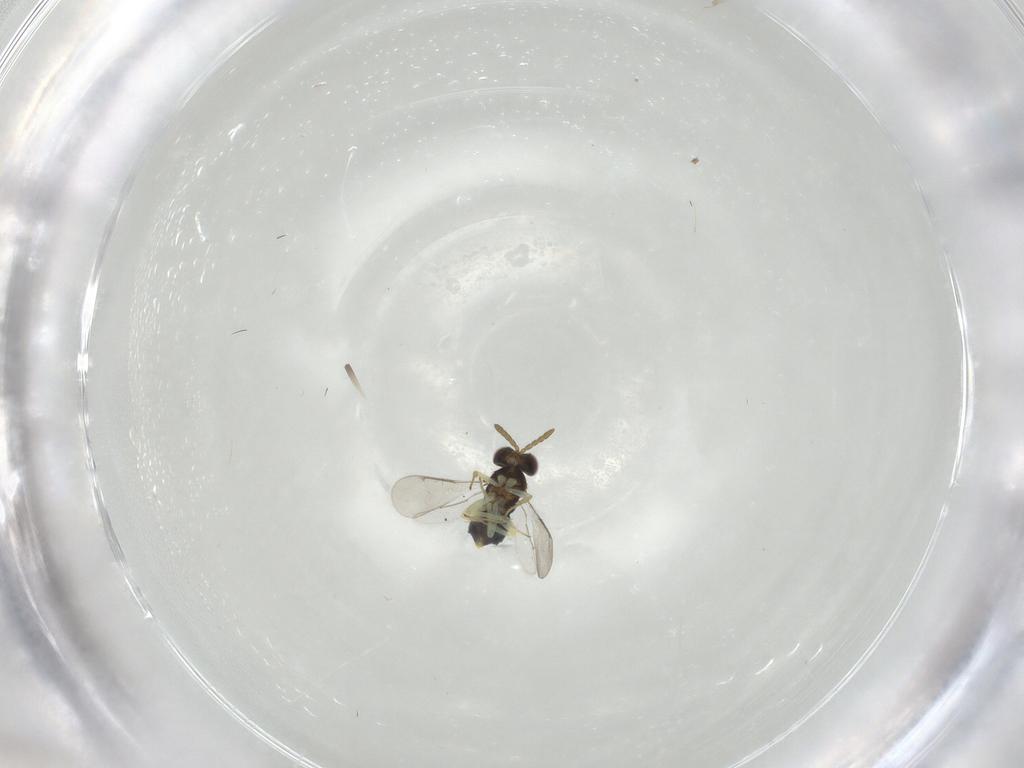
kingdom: Animalia
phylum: Arthropoda
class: Insecta
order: Hymenoptera
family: Aphelinidae
